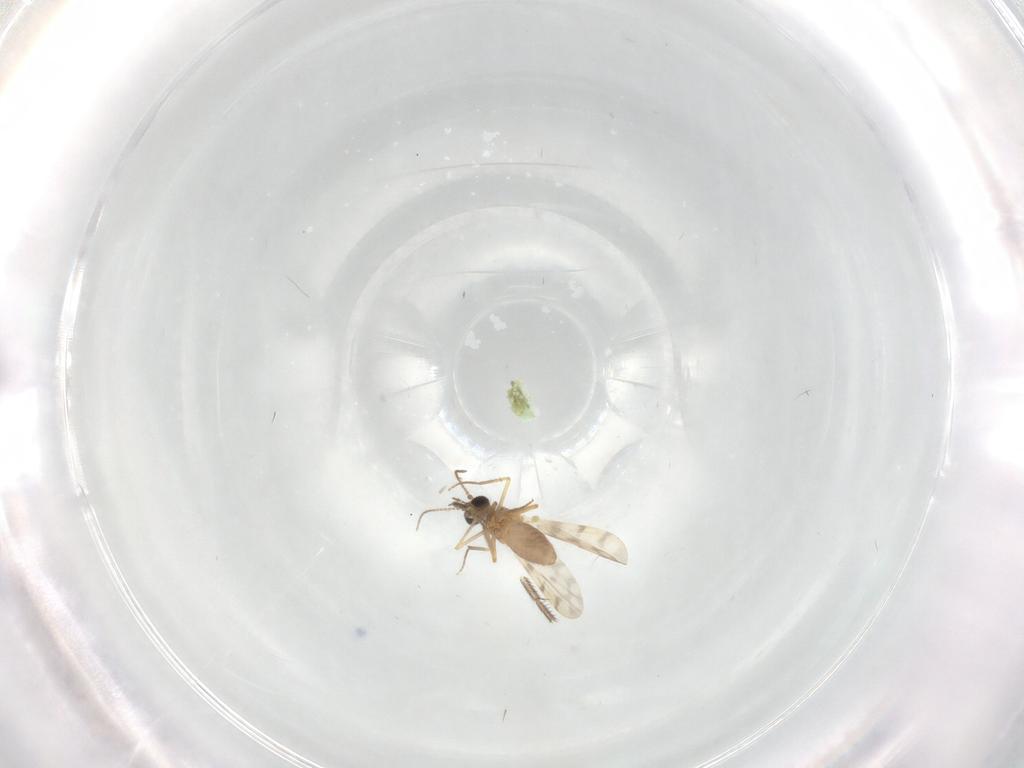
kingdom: Animalia
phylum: Arthropoda
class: Insecta
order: Diptera
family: Ceratopogonidae
